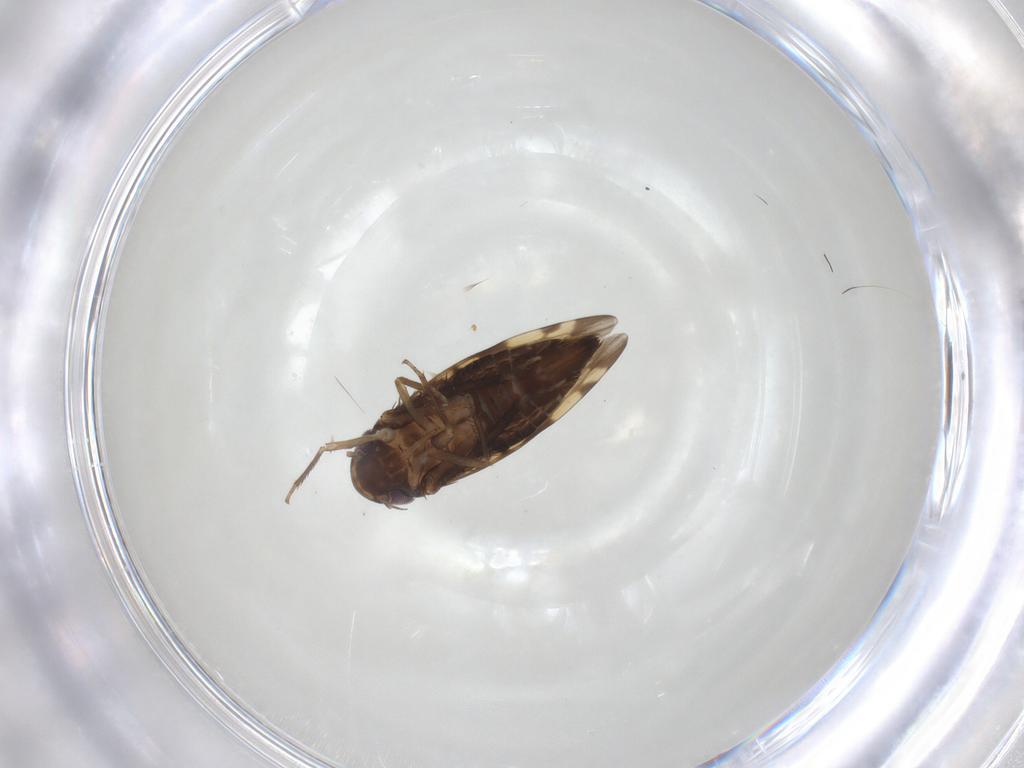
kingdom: Animalia
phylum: Arthropoda
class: Insecta
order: Hemiptera
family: Cicadellidae
